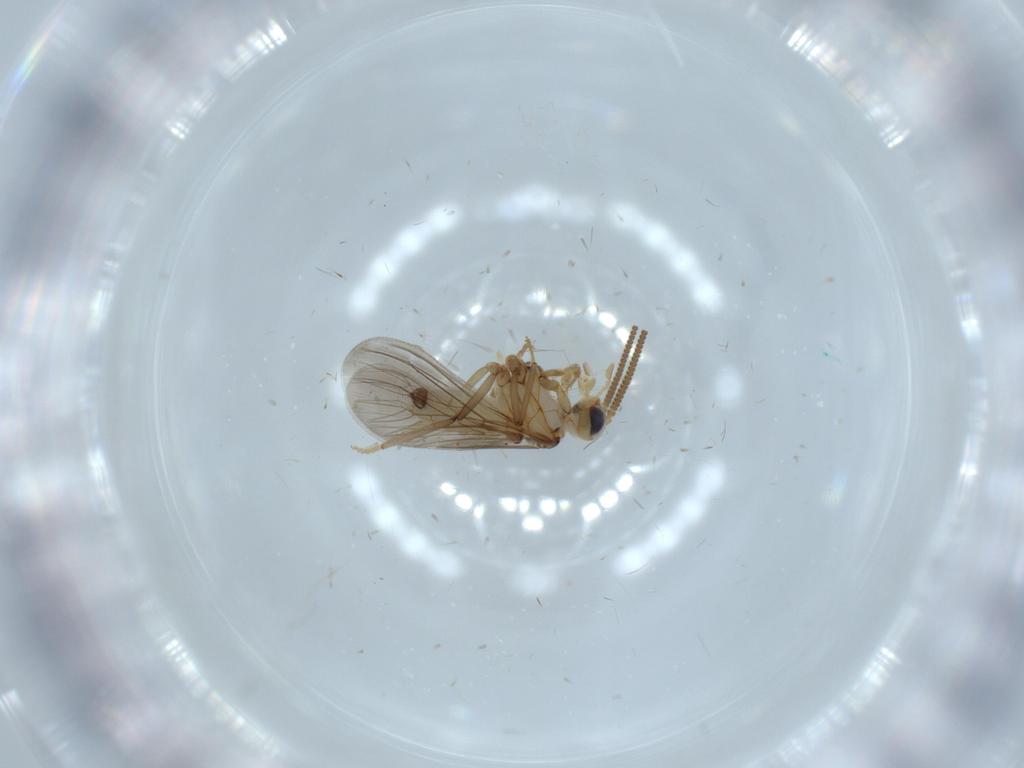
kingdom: Animalia
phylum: Arthropoda
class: Insecta
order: Neuroptera
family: Coniopterygidae
